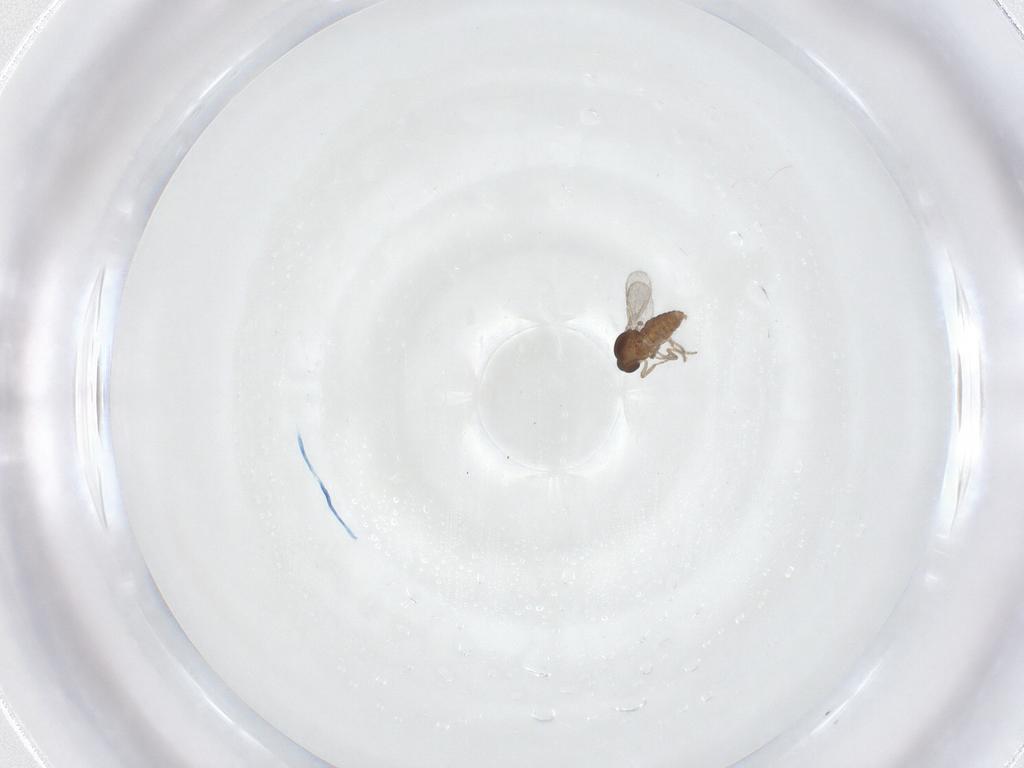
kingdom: Animalia
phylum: Arthropoda
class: Insecta
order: Diptera
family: Ceratopogonidae
